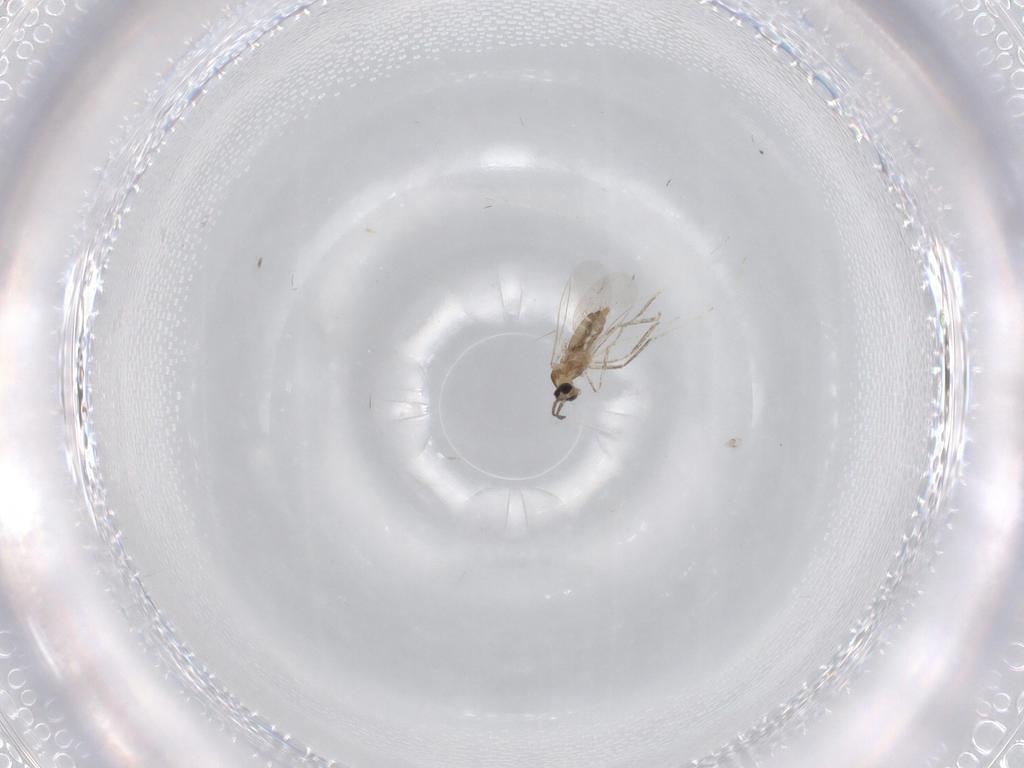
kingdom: Animalia
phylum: Arthropoda
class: Insecta
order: Diptera
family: Cecidomyiidae
